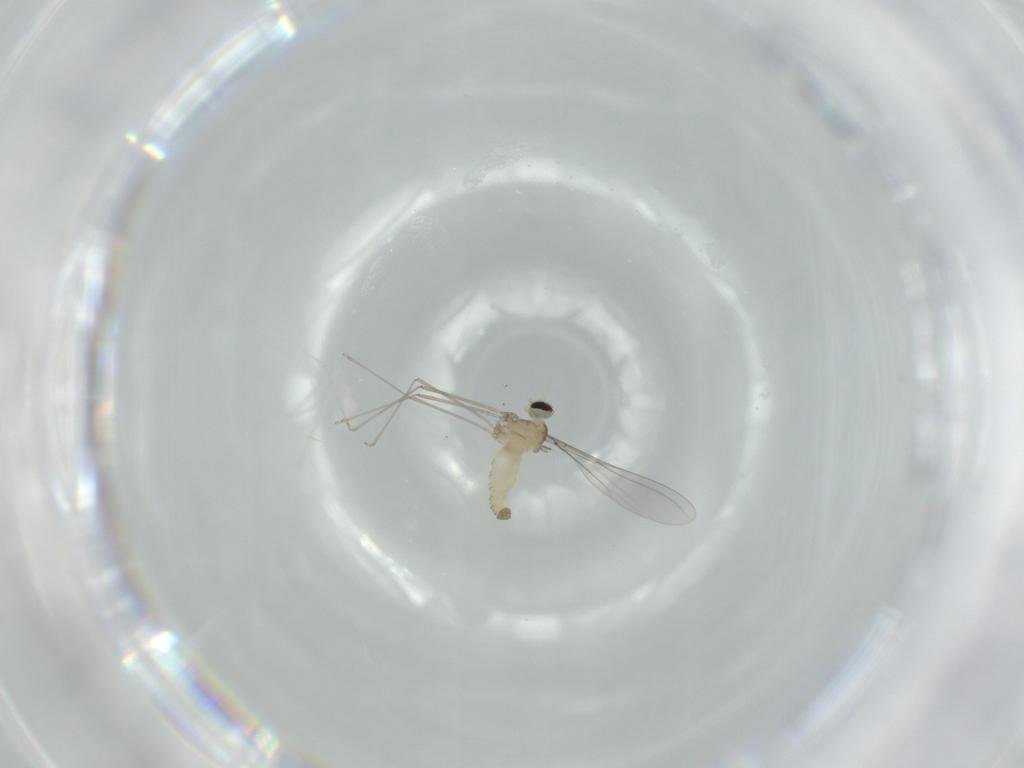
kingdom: Animalia
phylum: Arthropoda
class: Insecta
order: Diptera
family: Cecidomyiidae
